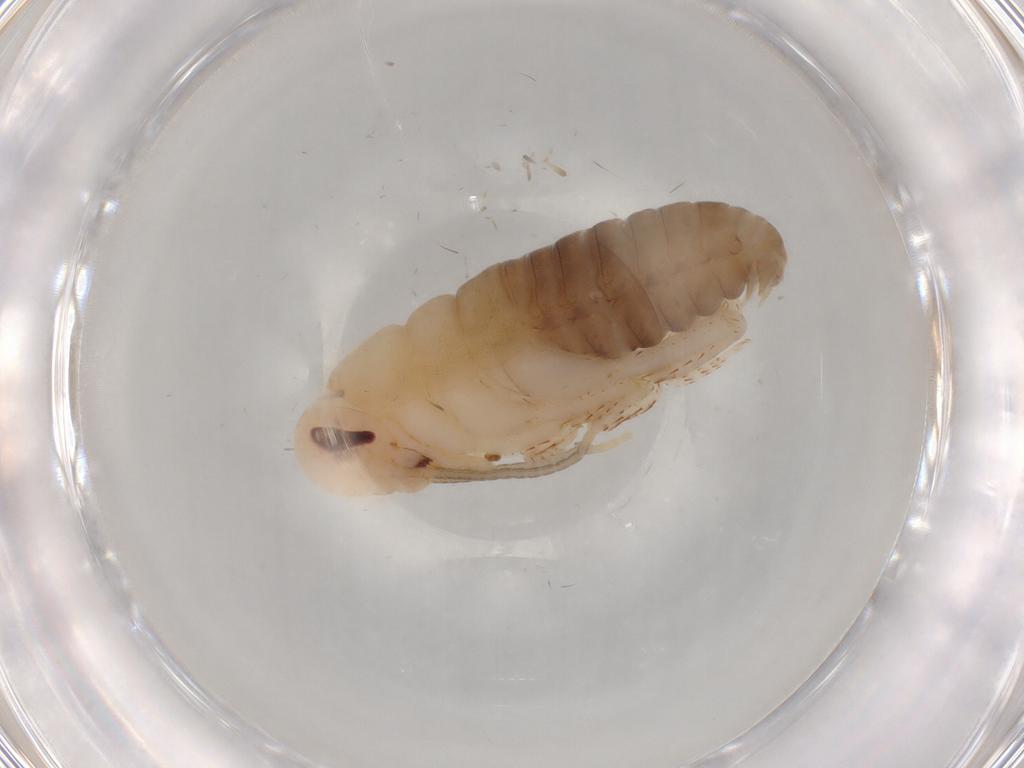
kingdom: Animalia
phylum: Arthropoda
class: Insecta
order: Blattodea
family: Blaberidae
